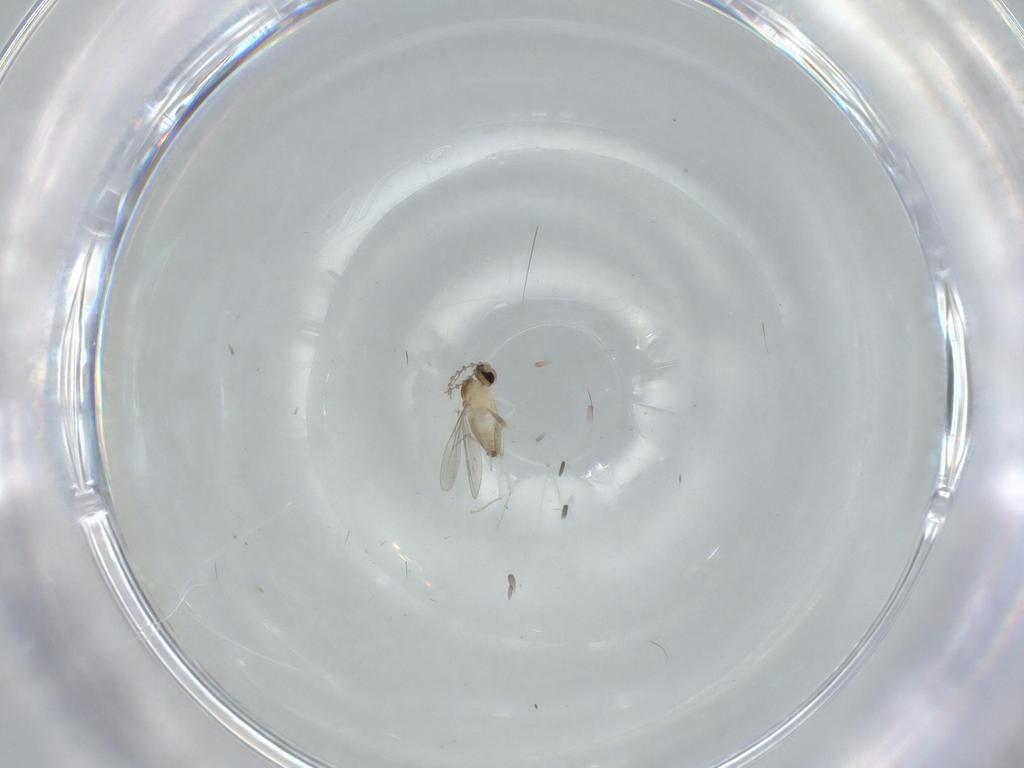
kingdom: Animalia
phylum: Arthropoda
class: Insecta
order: Diptera
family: Cecidomyiidae
